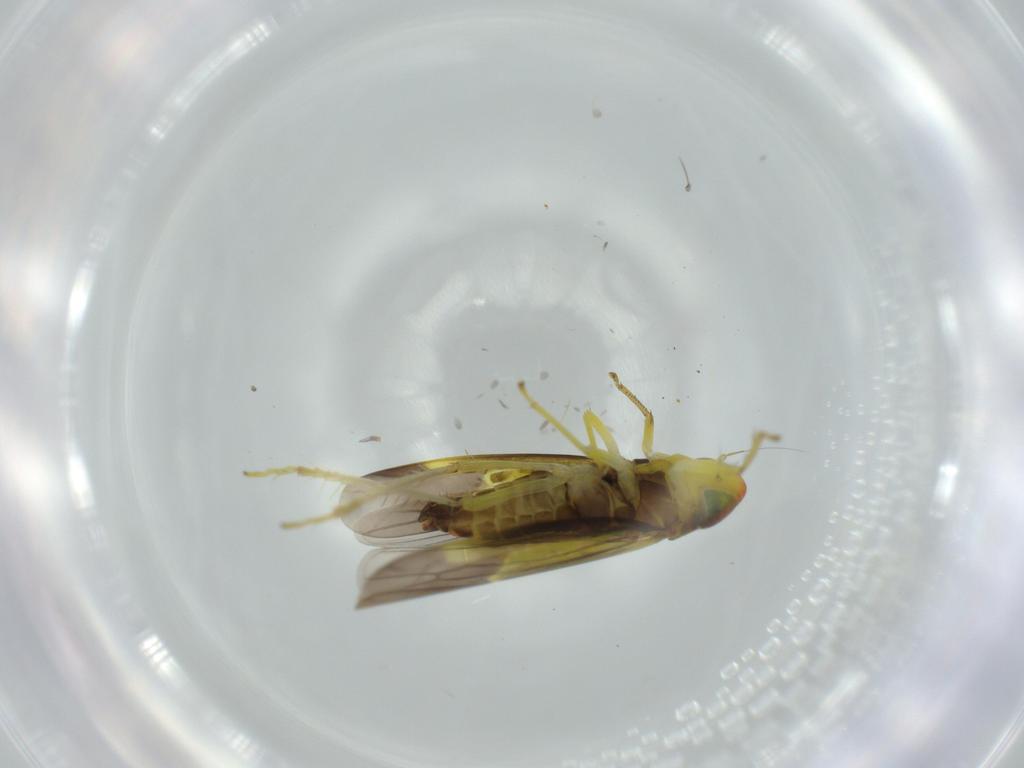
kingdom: Animalia
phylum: Arthropoda
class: Insecta
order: Hemiptera
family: Cicadellidae
